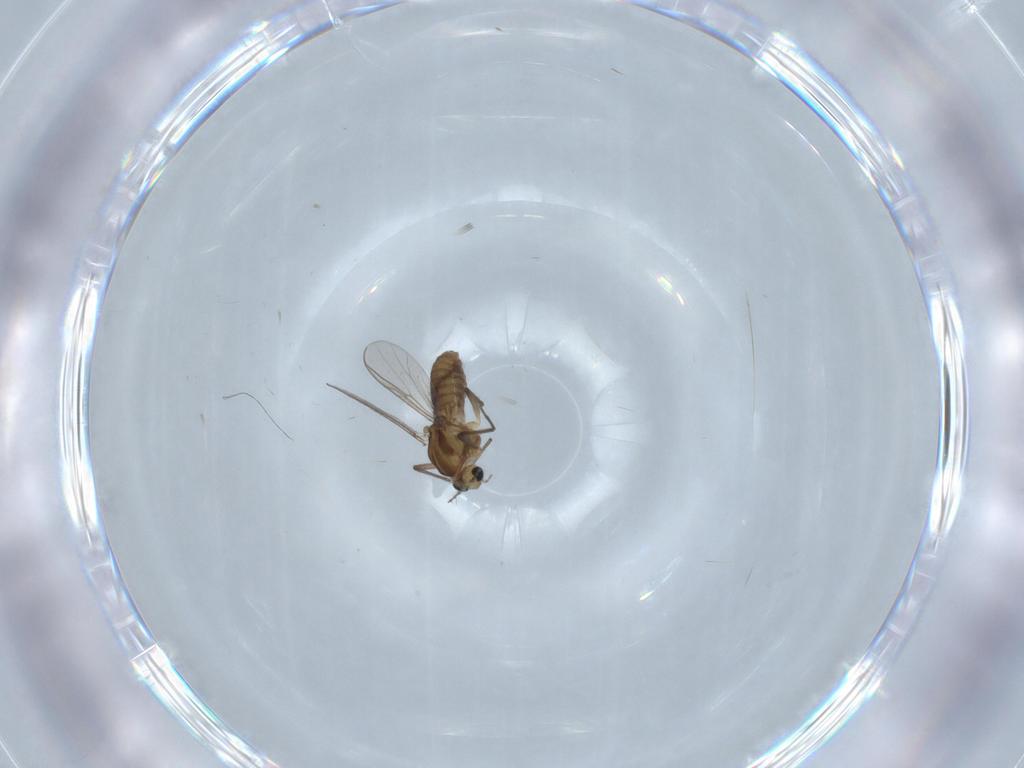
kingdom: Animalia
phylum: Arthropoda
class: Insecta
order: Diptera
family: Chironomidae
